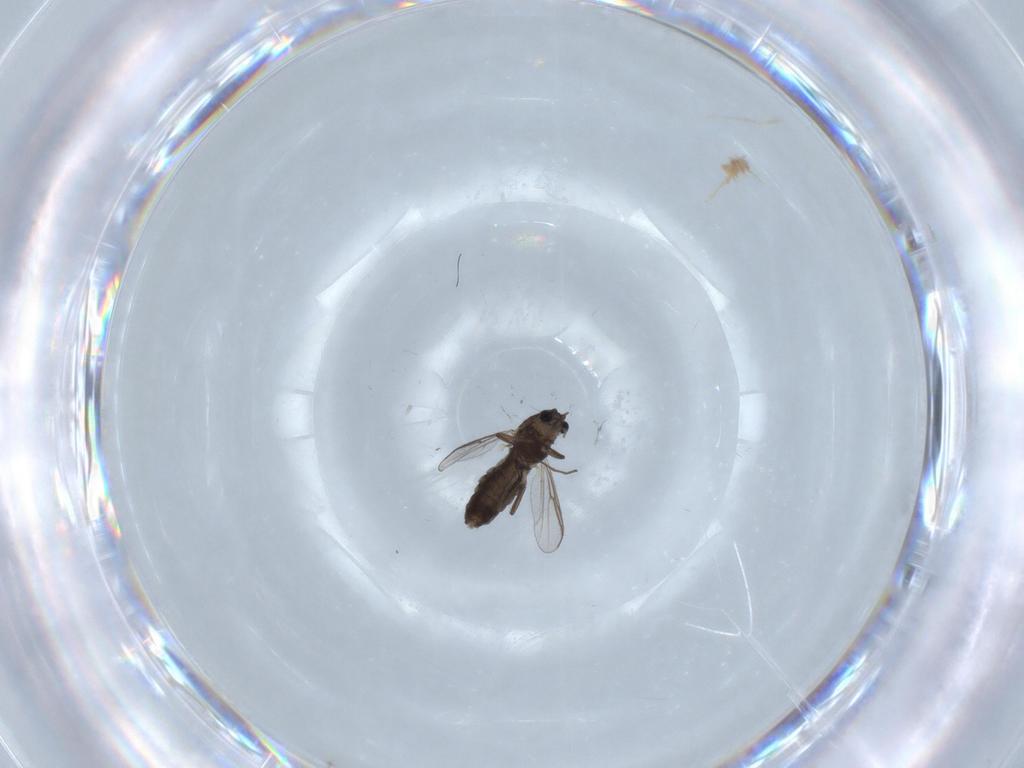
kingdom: Animalia
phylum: Arthropoda
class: Insecta
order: Diptera
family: Chironomidae
